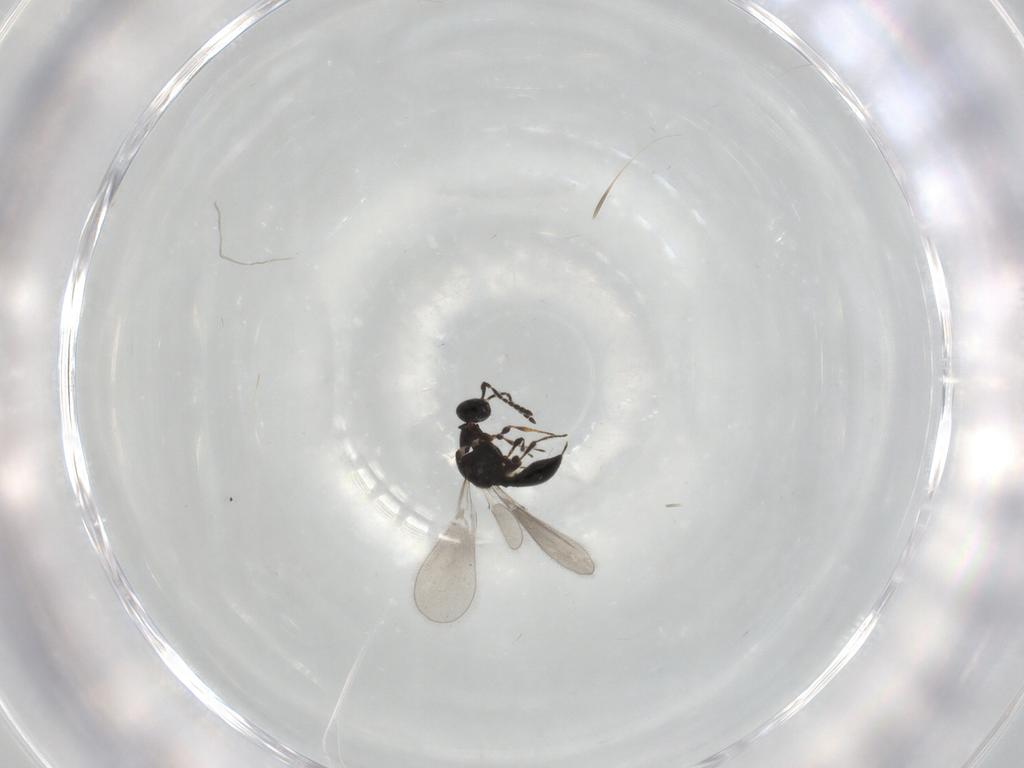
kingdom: Animalia
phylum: Arthropoda
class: Insecta
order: Hymenoptera
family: Platygastridae
